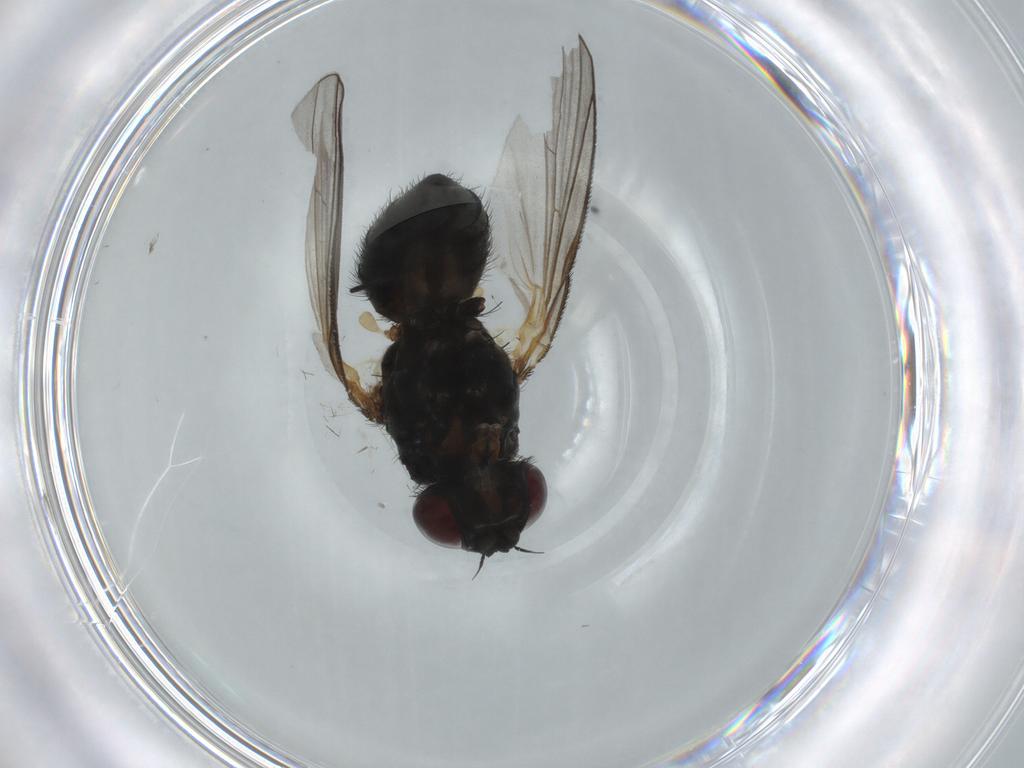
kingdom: Animalia
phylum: Arthropoda
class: Insecta
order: Diptera
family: Fannia
